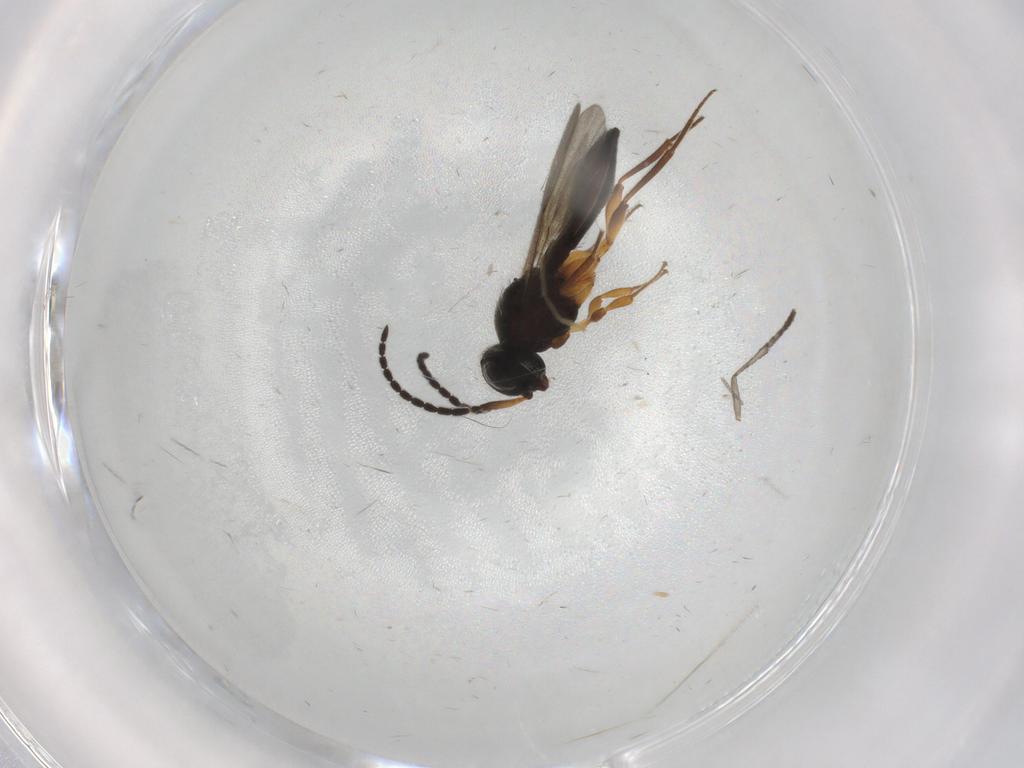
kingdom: Animalia
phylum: Arthropoda
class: Insecta
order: Hymenoptera
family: Scelionidae
